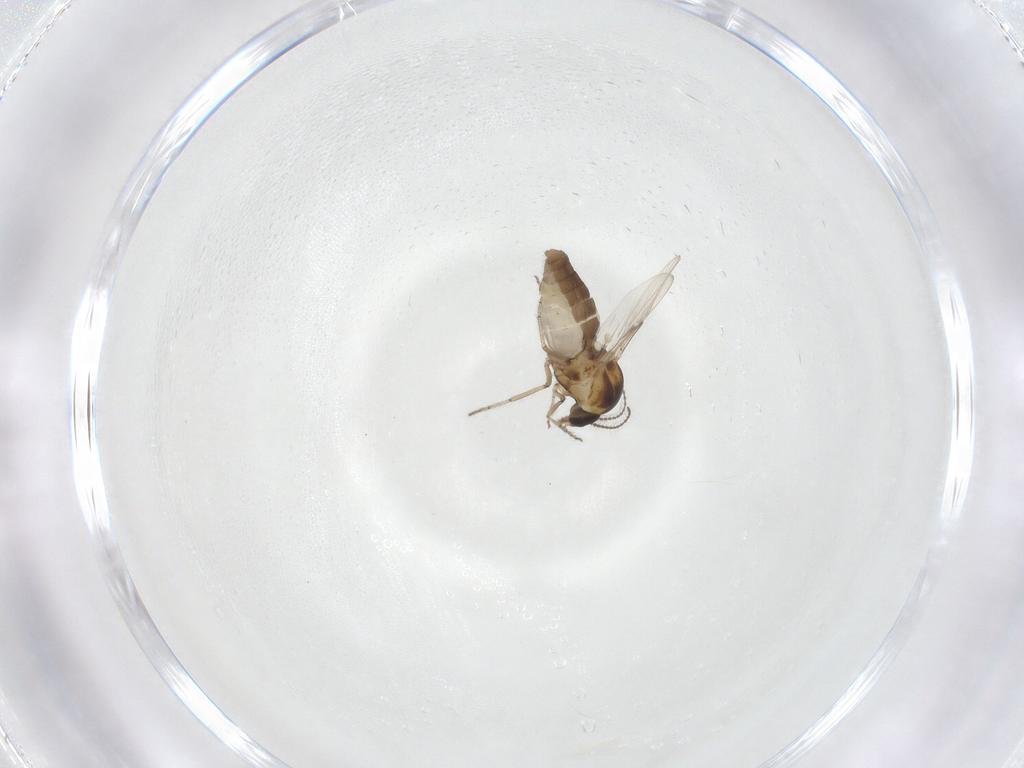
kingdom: Animalia
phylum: Arthropoda
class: Insecta
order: Diptera
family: Ceratopogonidae
